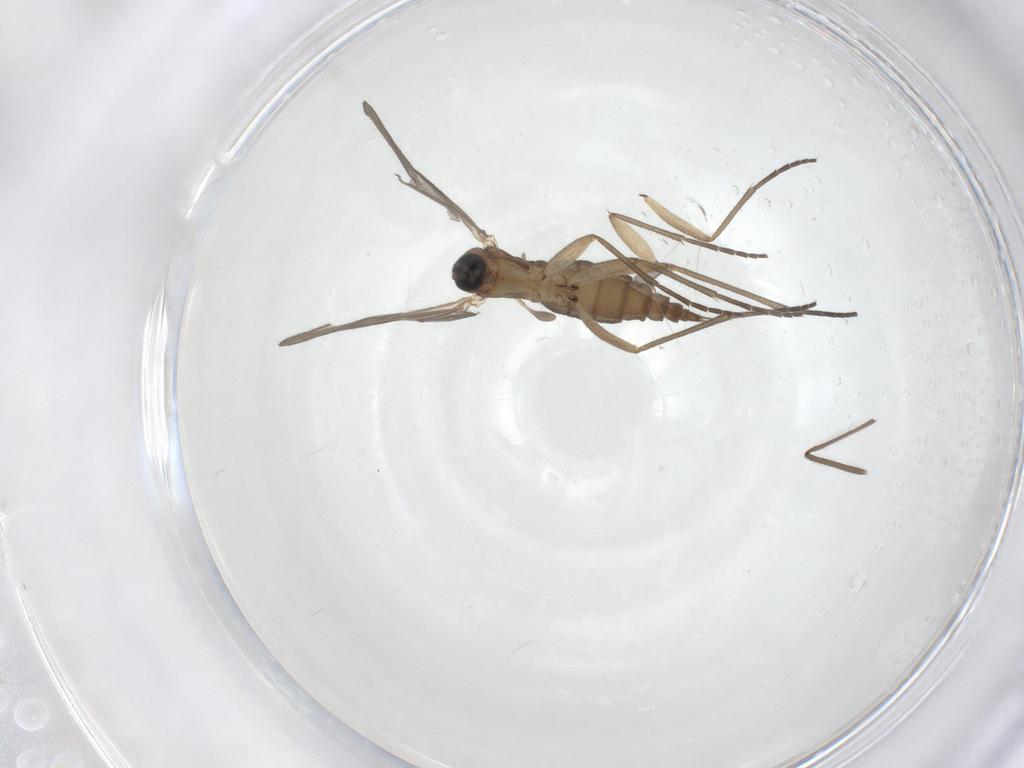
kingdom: Animalia
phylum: Arthropoda
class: Insecta
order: Diptera
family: Sciaridae
